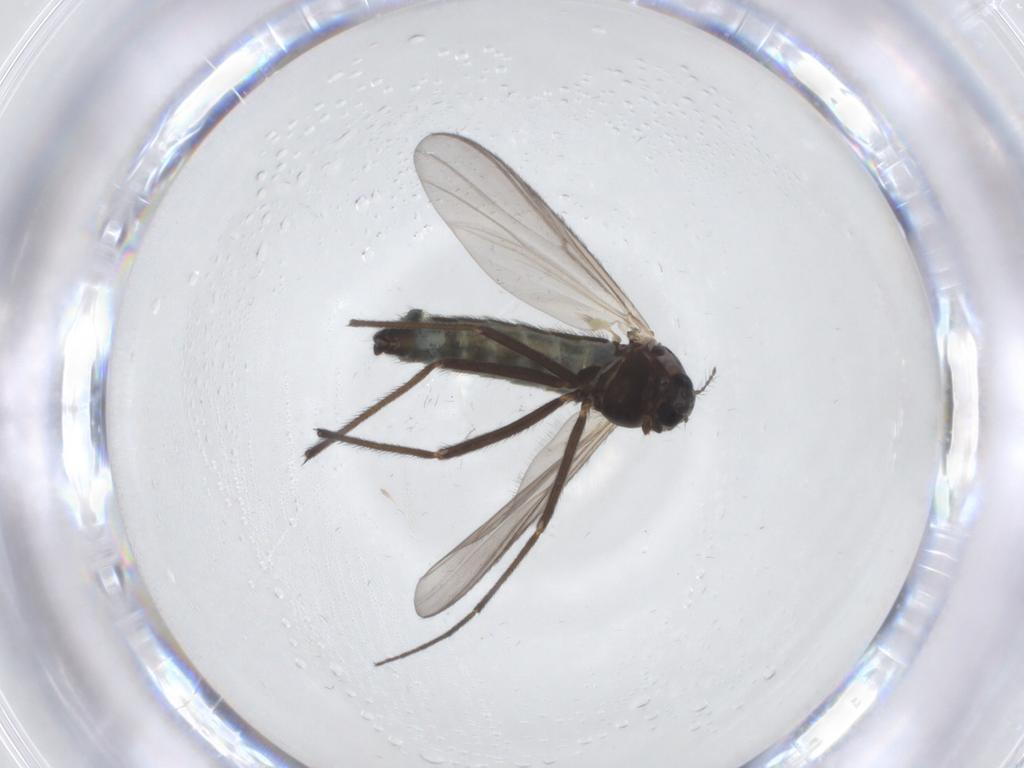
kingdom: Animalia
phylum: Arthropoda
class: Insecta
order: Diptera
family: Chironomidae
